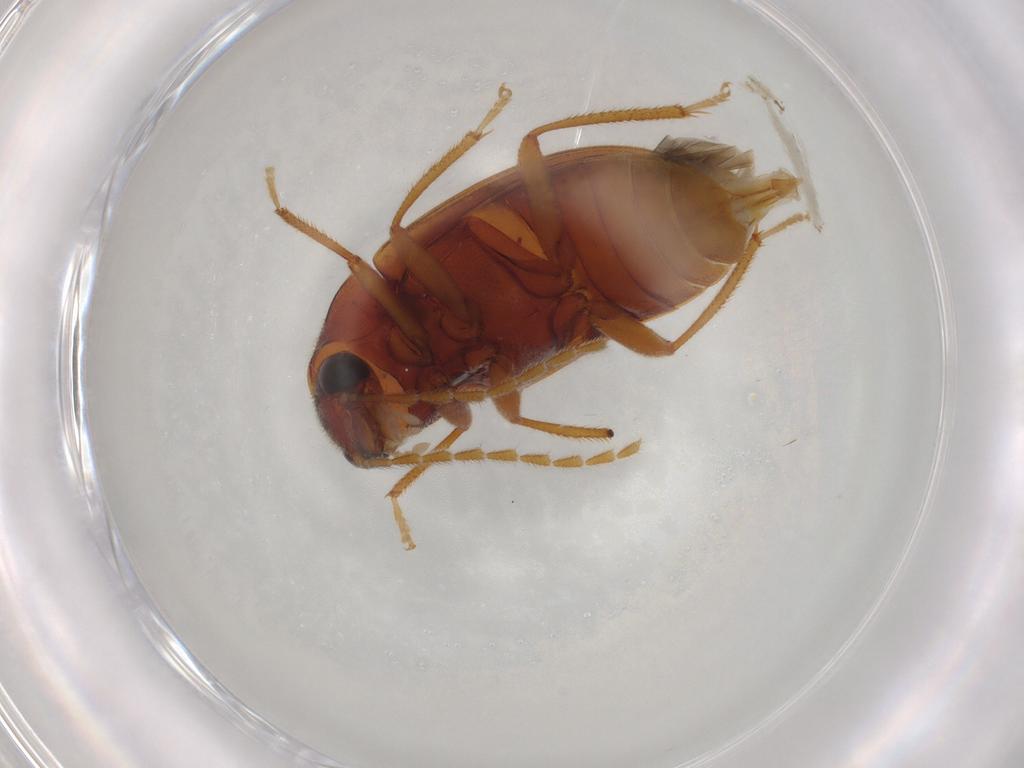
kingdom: Animalia
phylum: Arthropoda
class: Insecta
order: Coleoptera
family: Ptilodactylidae
